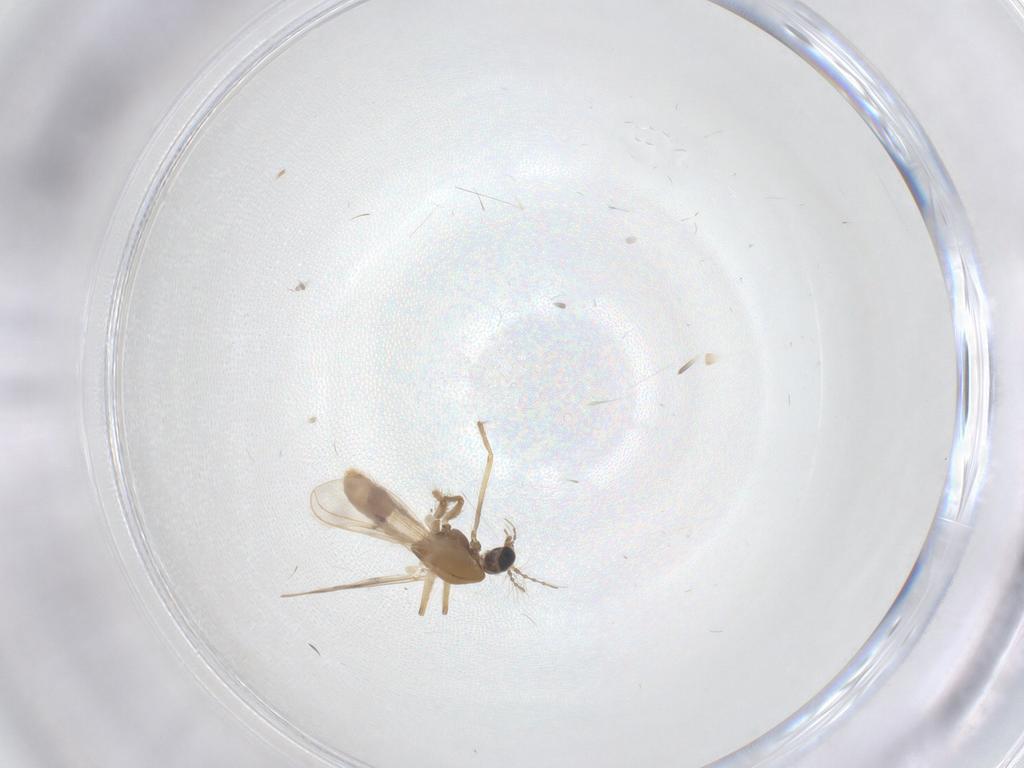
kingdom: Animalia
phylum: Arthropoda
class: Insecta
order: Diptera
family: Chironomidae
